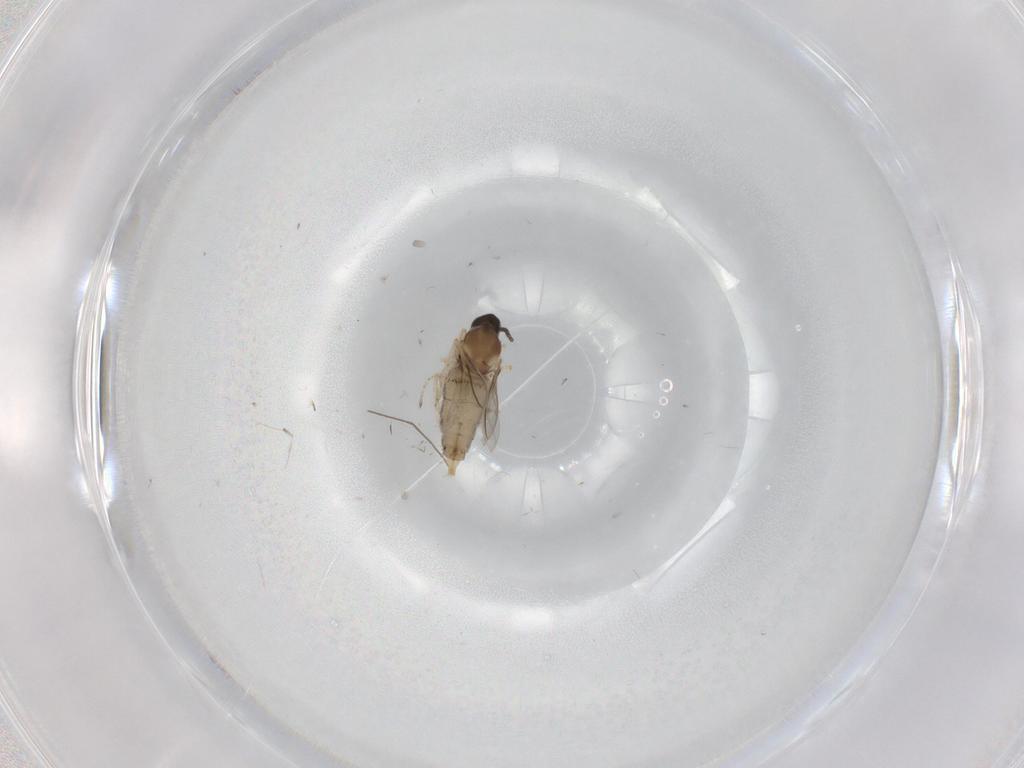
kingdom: Animalia
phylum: Arthropoda
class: Insecta
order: Diptera
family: Cecidomyiidae
